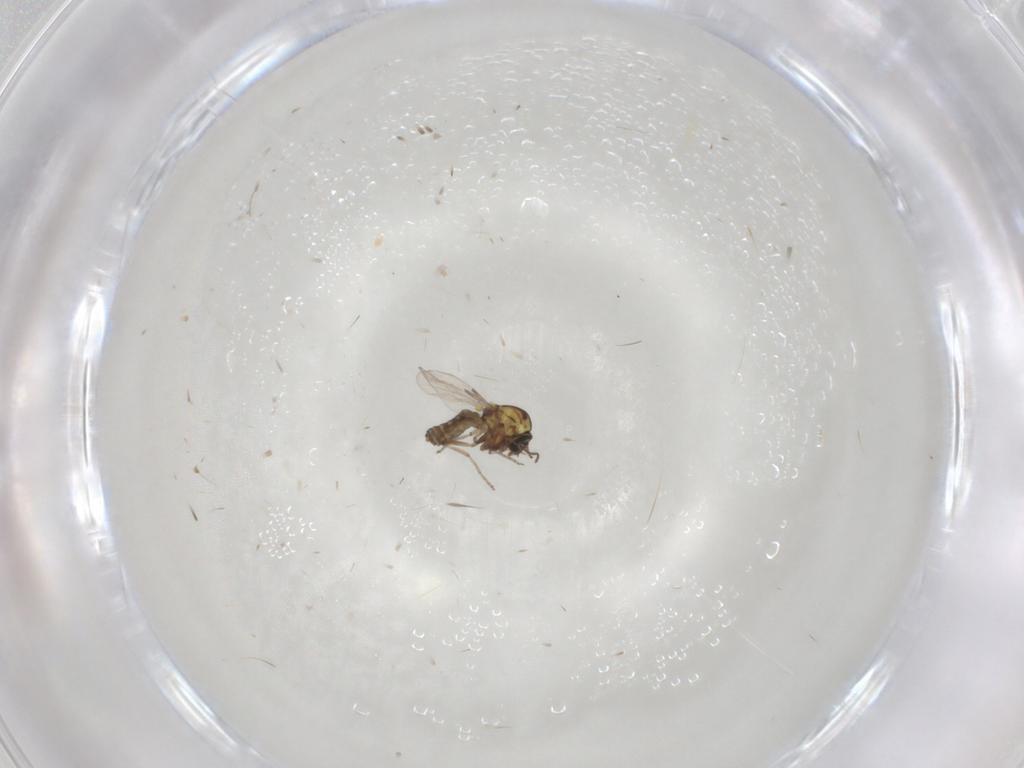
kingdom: Animalia
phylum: Arthropoda
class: Insecta
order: Diptera
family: Ceratopogonidae
